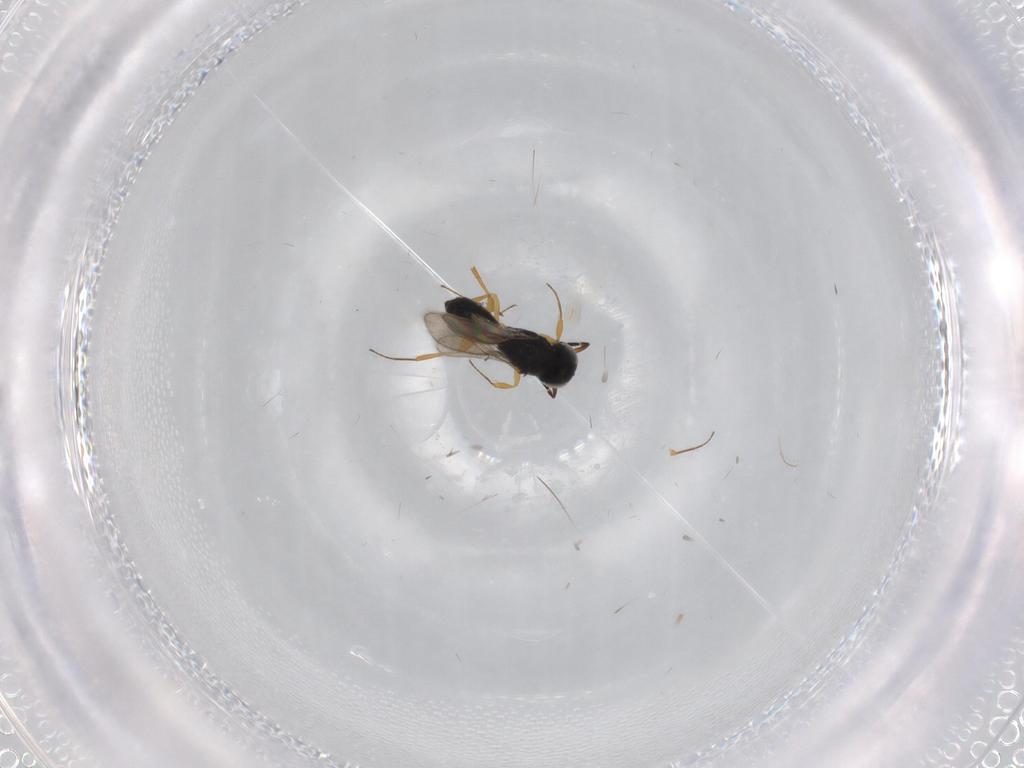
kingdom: Animalia
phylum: Arthropoda
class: Insecta
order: Hymenoptera
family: Scelionidae
